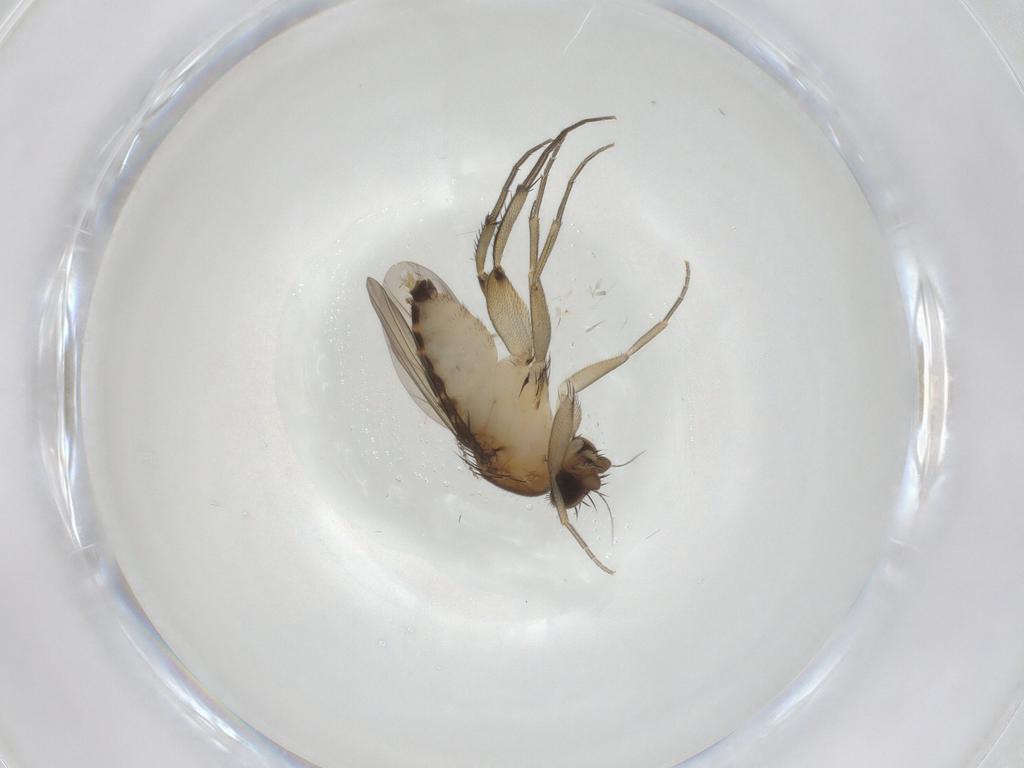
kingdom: Animalia
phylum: Arthropoda
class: Insecta
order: Diptera
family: Phoridae
